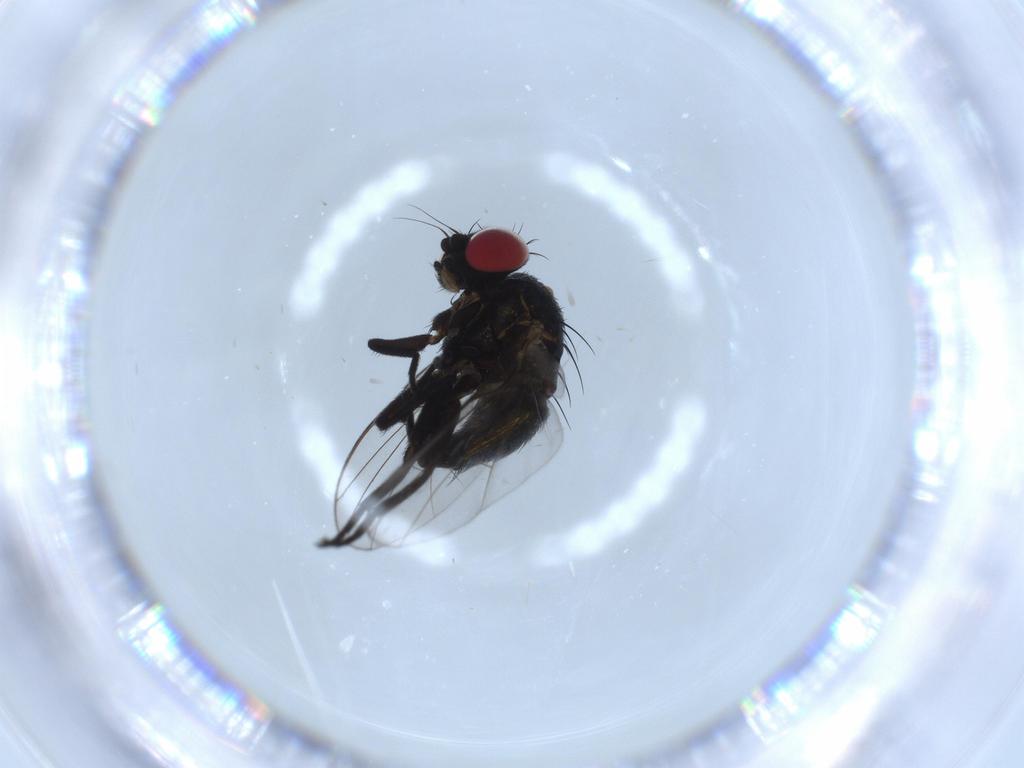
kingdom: Animalia
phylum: Arthropoda
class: Insecta
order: Diptera
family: Agromyzidae
